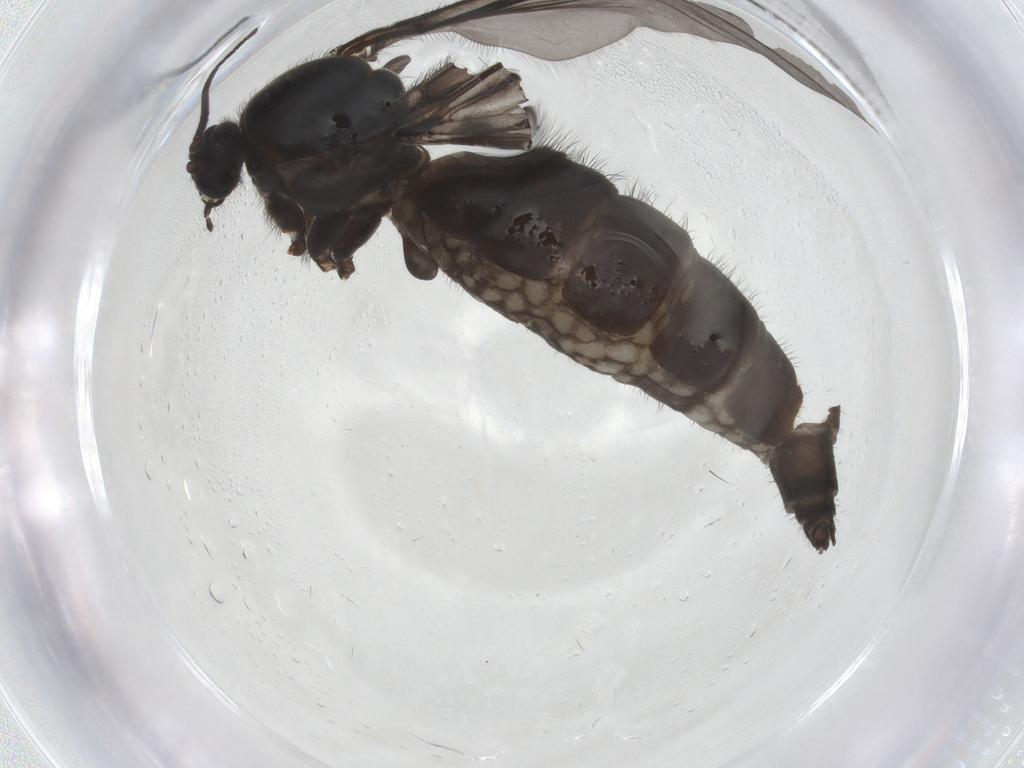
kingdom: Animalia
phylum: Arthropoda
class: Insecta
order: Diptera
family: Sciaridae
